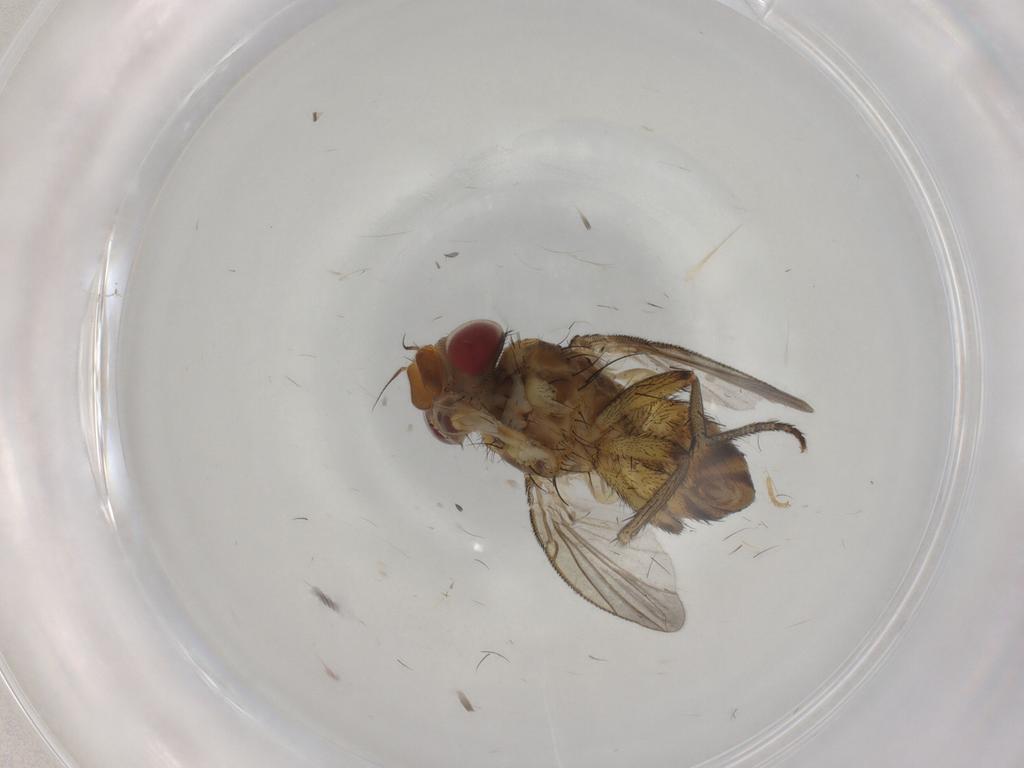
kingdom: Animalia
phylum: Arthropoda
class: Insecta
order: Diptera
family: Tachinidae
